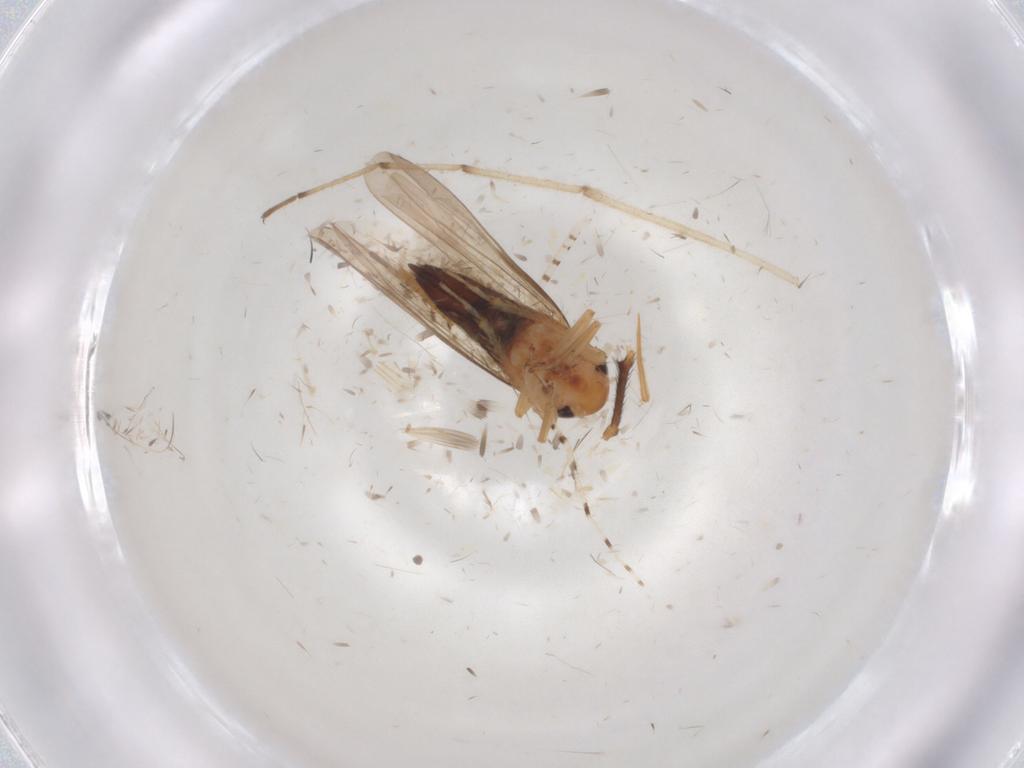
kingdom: Animalia
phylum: Arthropoda
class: Insecta
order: Hemiptera
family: Cicadellidae
